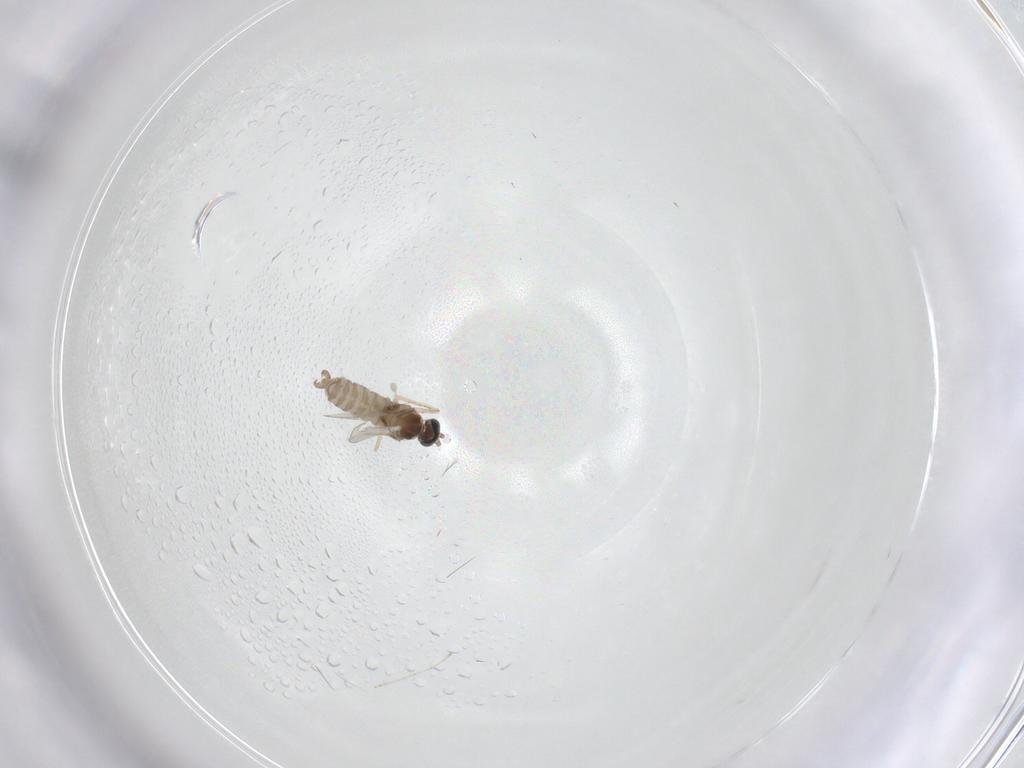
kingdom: Animalia
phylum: Arthropoda
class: Insecta
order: Diptera
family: Cecidomyiidae
